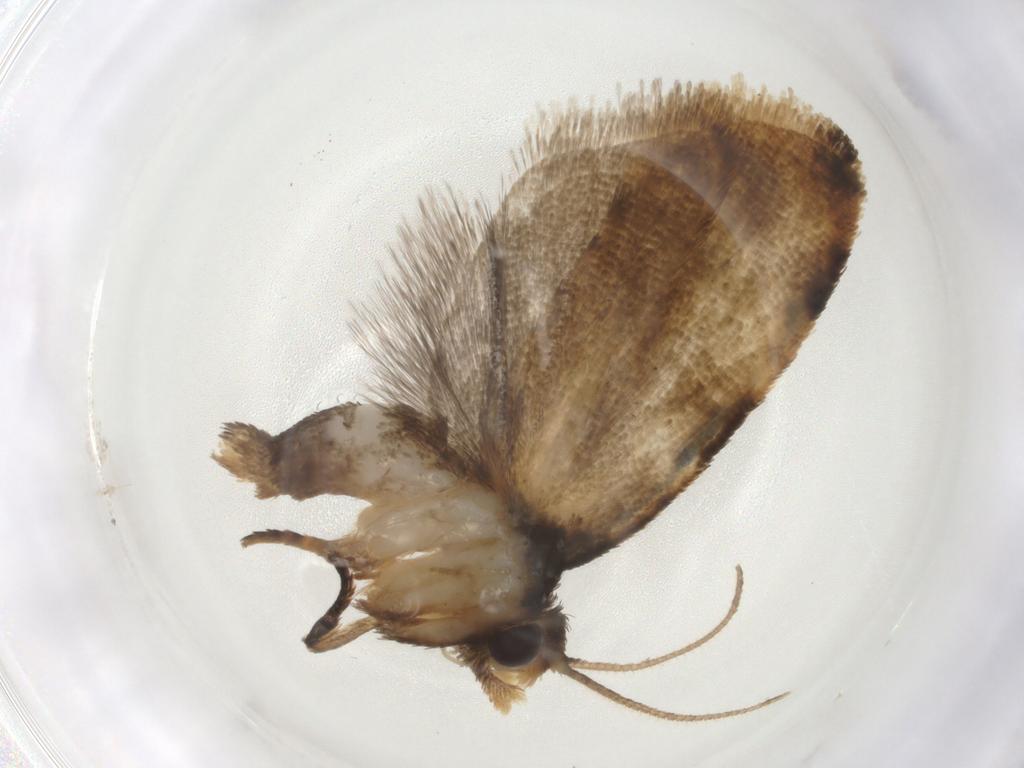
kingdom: Animalia
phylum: Arthropoda
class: Insecta
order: Lepidoptera
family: Tortricidae
